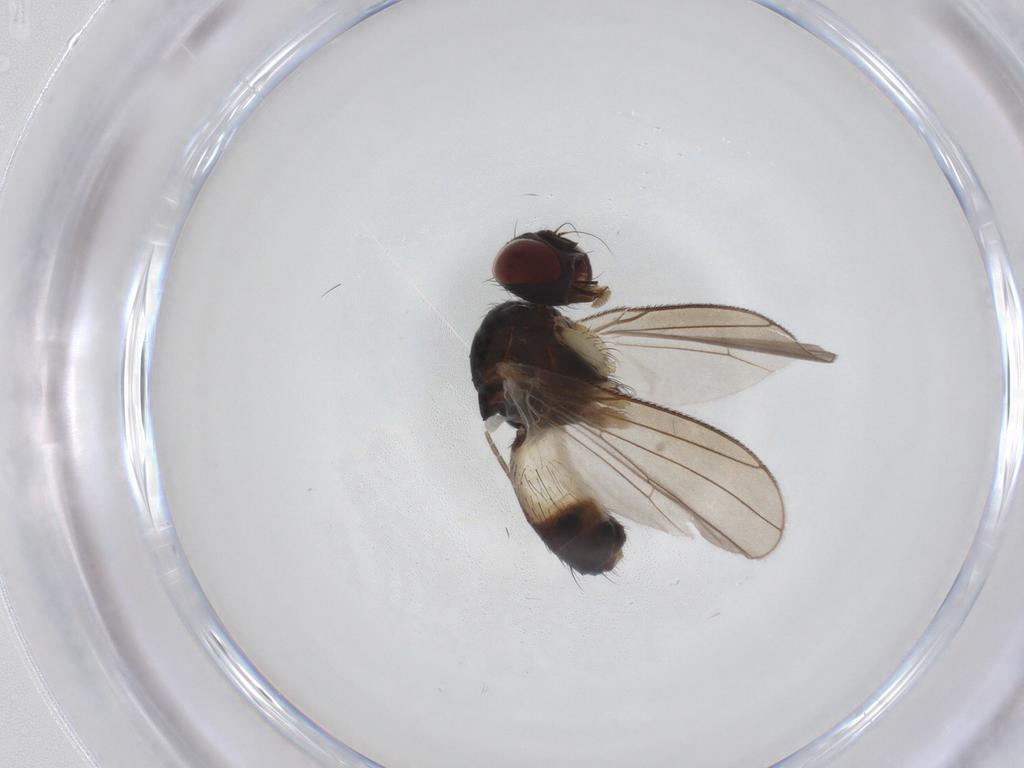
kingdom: Animalia
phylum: Arthropoda
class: Insecta
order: Diptera
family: Muscidae
